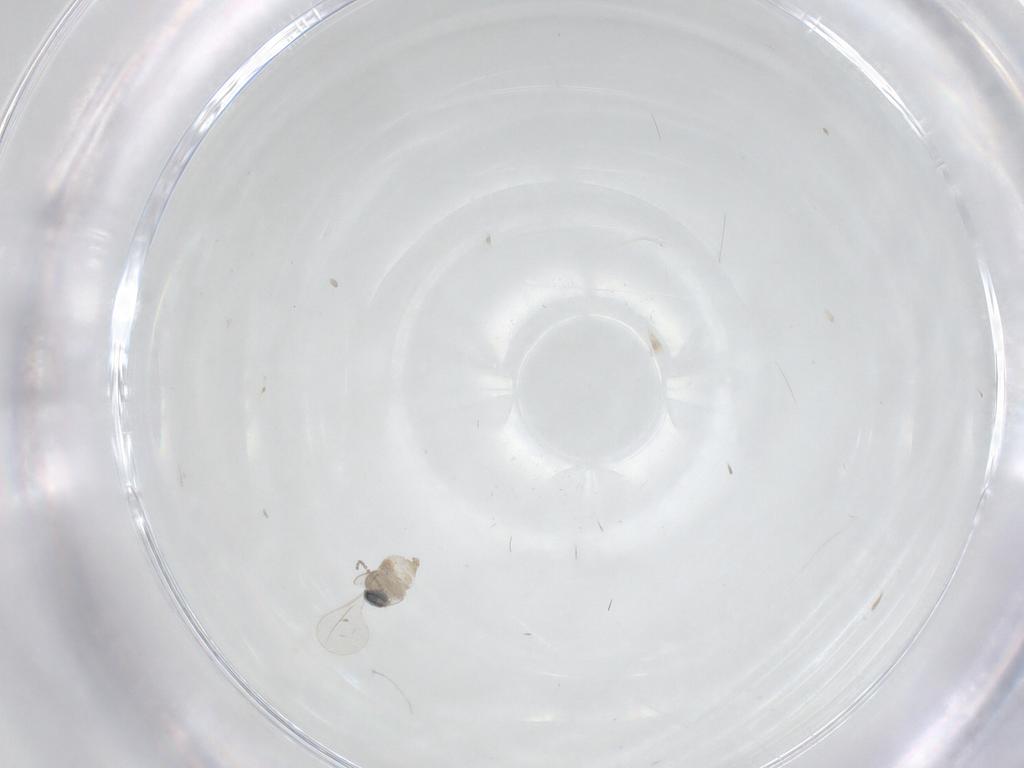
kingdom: Animalia
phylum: Arthropoda
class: Insecta
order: Diptera
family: Cecidomyiidae
